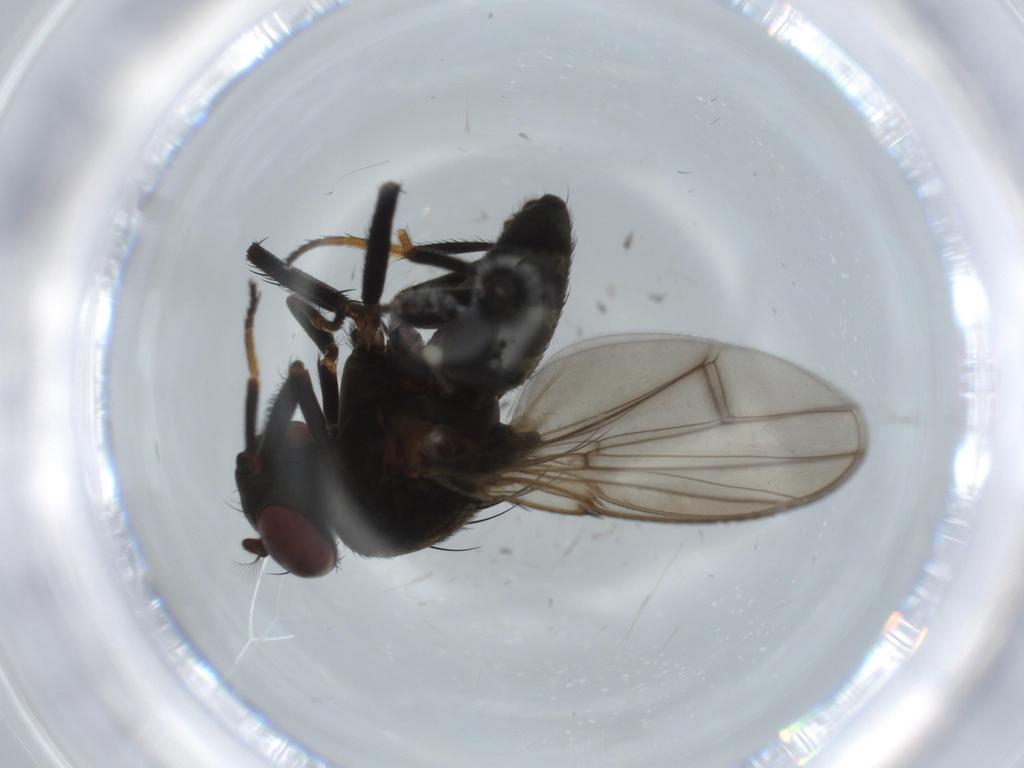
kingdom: Animalia
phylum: Arthropoda
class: Insecta
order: Diptera
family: Ephydridae
